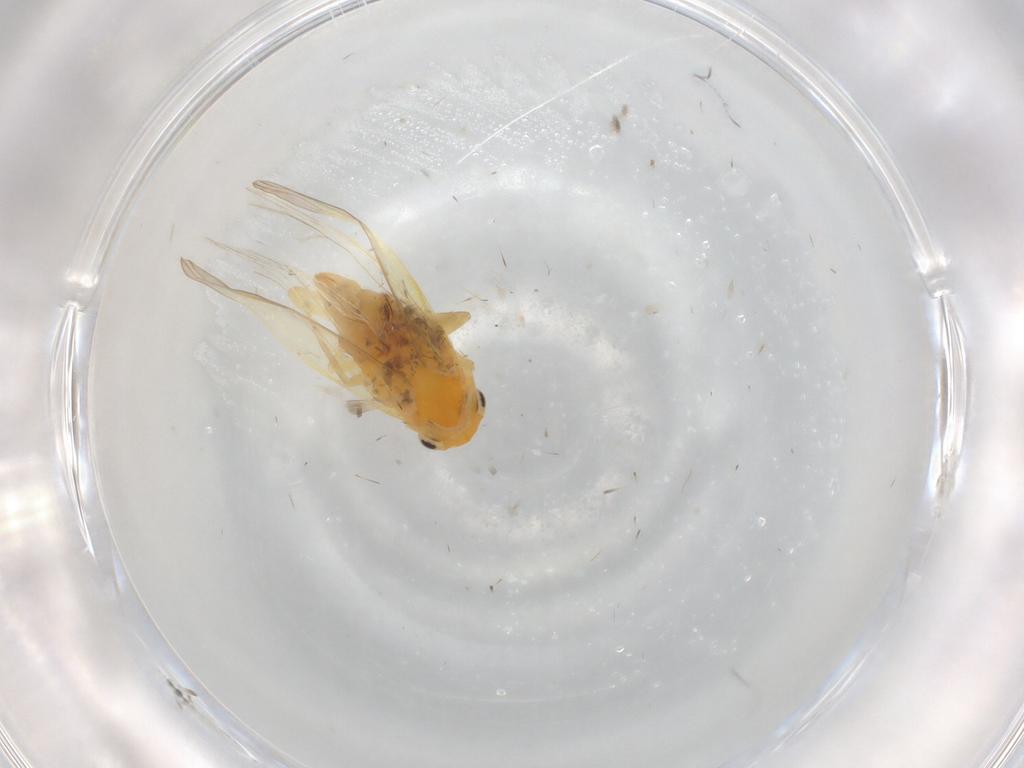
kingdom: Animalia
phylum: Arthropoda
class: Insecta
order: Hemiptera
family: Cicadellidae
